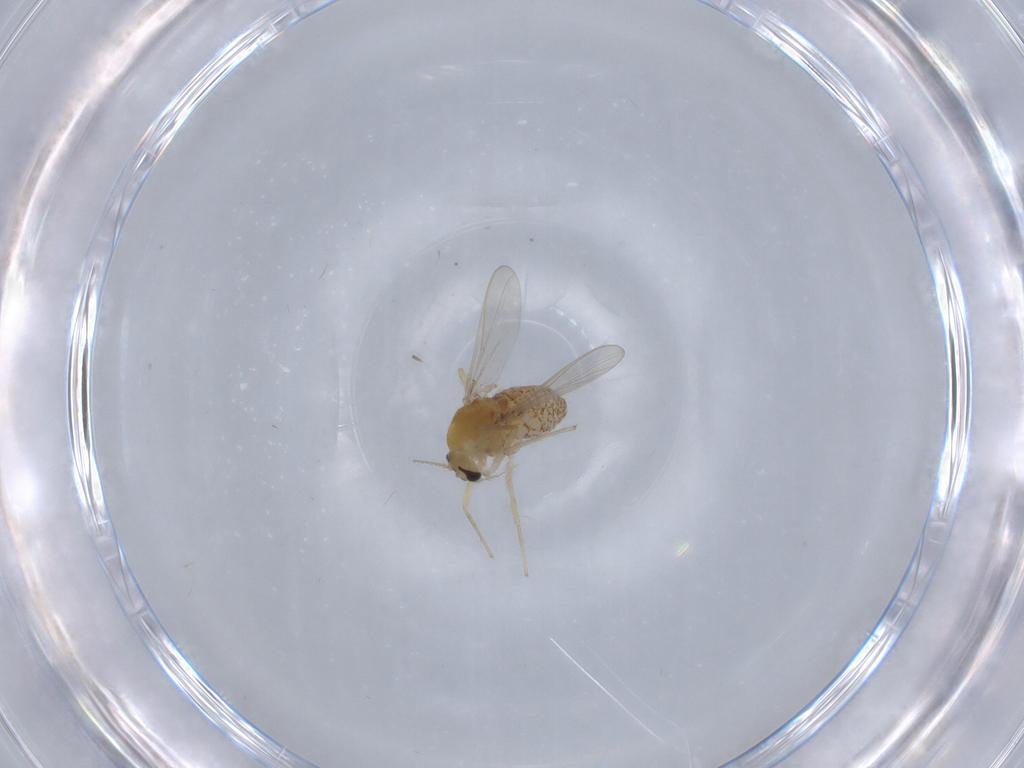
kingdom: Animalia
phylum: Arthropoda
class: Insecta
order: Diptera
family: Chironomidae
